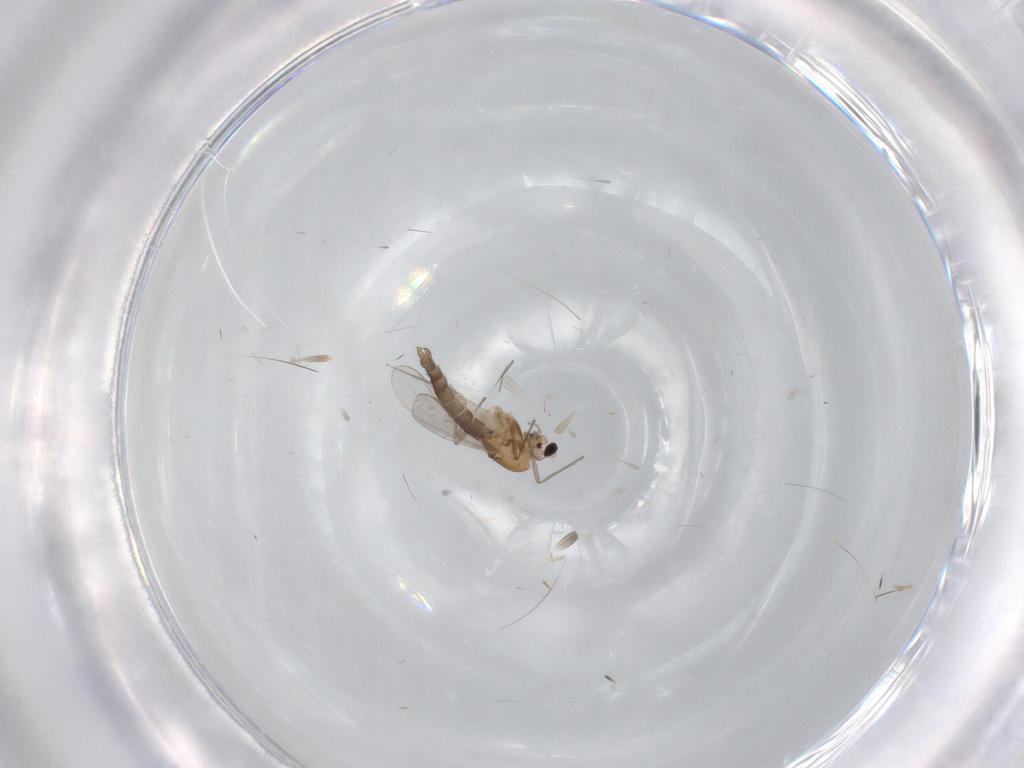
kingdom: Animalia
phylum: Arthropoda
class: Insecta
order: Diptera
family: Chironomidae
